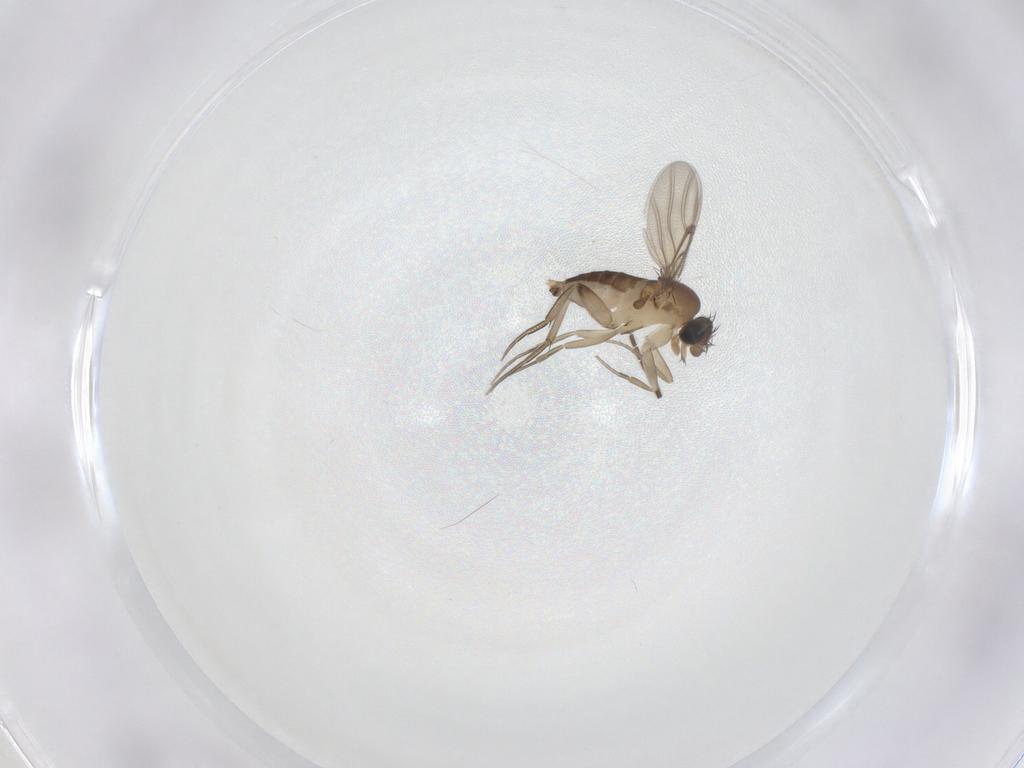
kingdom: Animalia
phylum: Arthropoda
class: Insecta
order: Diptera
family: Phoridae
